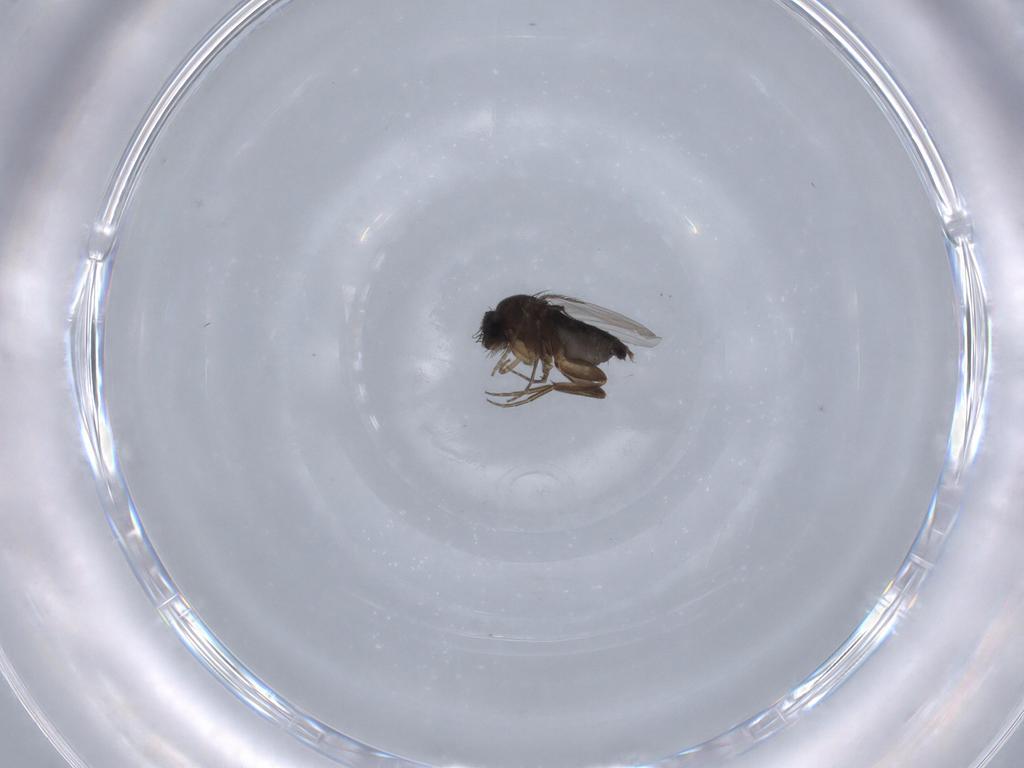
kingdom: Animalia
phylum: Arthropoda
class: Insecta
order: Diptera
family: Phoridae
